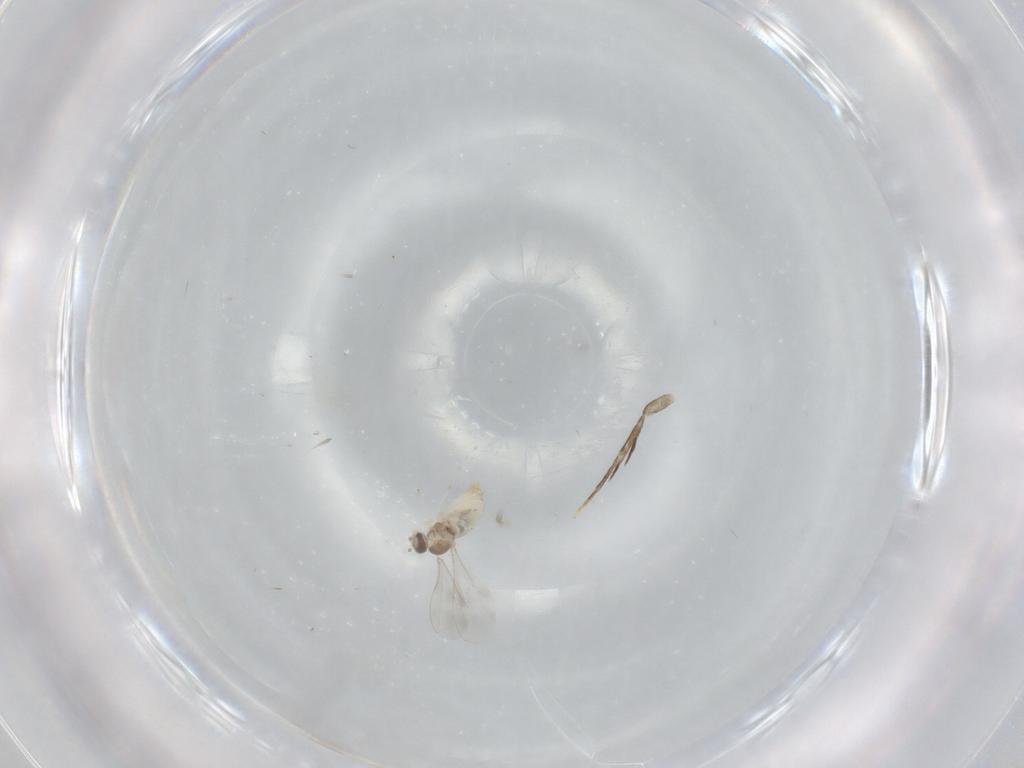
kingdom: Animalia
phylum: Arthropoda
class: Insecta
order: Diptera
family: Cecidomyiidae
